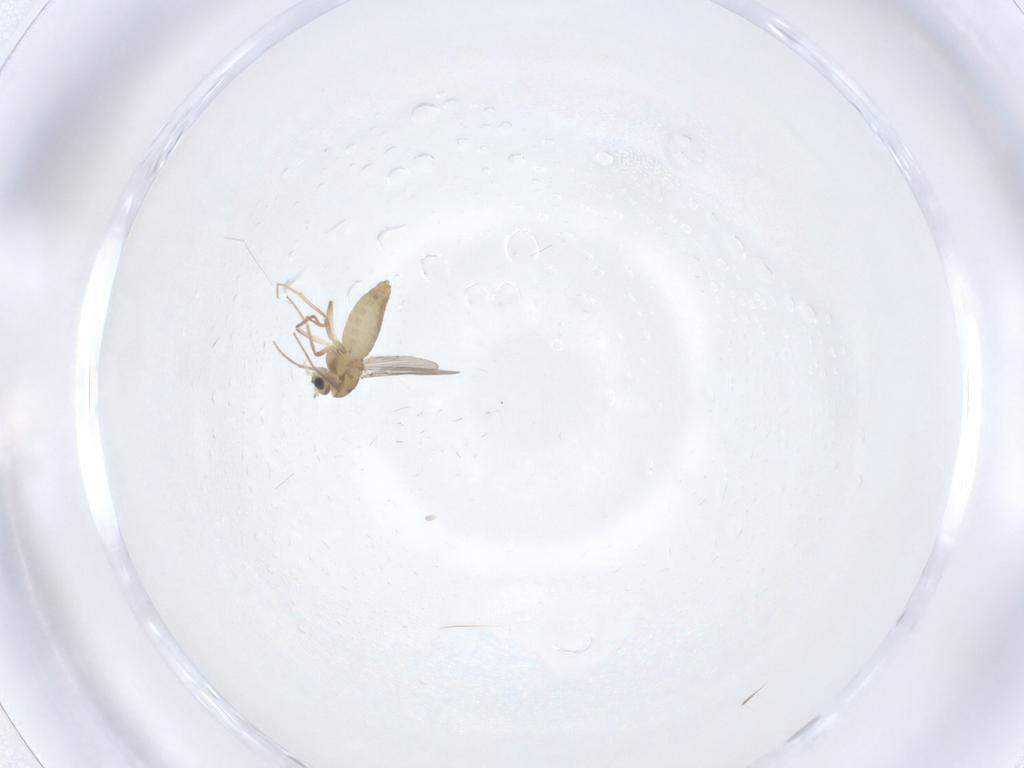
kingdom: Animalia
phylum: Arthropoda
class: Insecta
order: Diptera
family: Chironomidae
